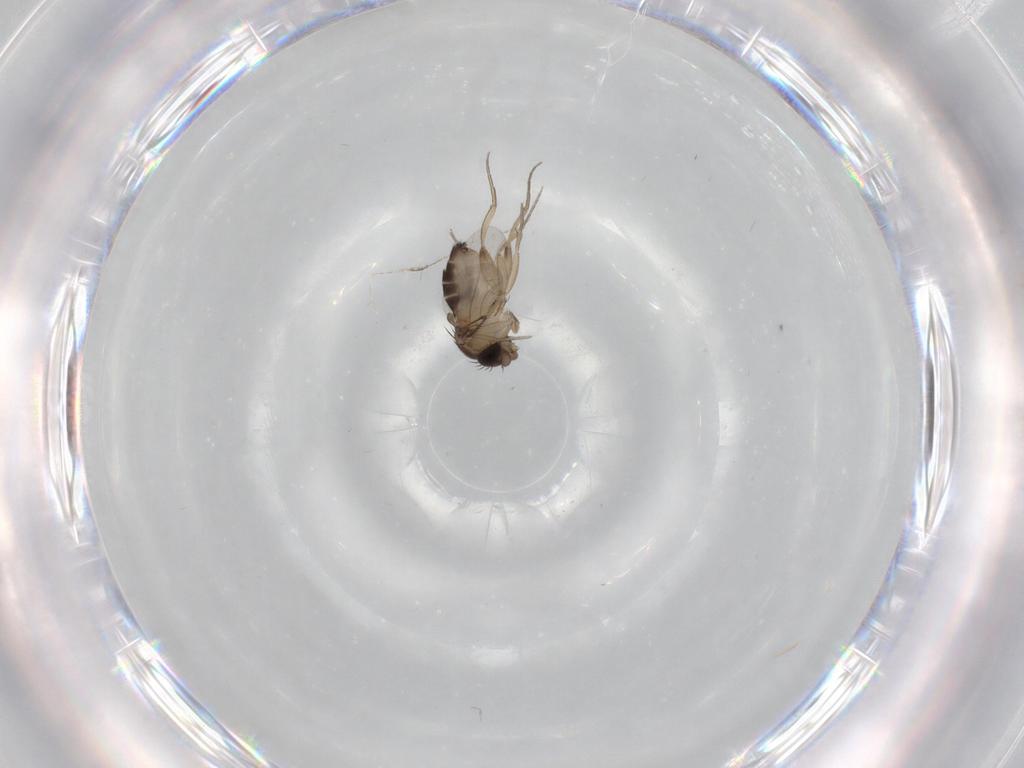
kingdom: Animalia
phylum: Arthropoda
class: Insecta
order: Diptera
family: Phoridae
